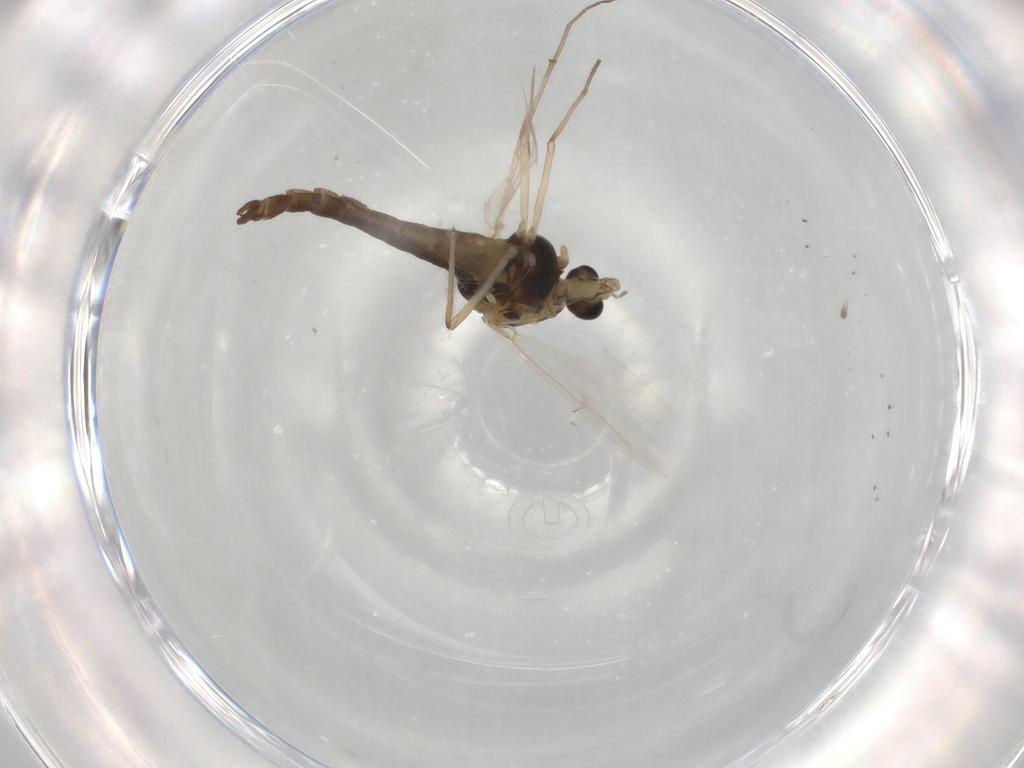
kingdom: Animalia
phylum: Arthropoda
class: Insecta
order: Diptera
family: Chironomidae
